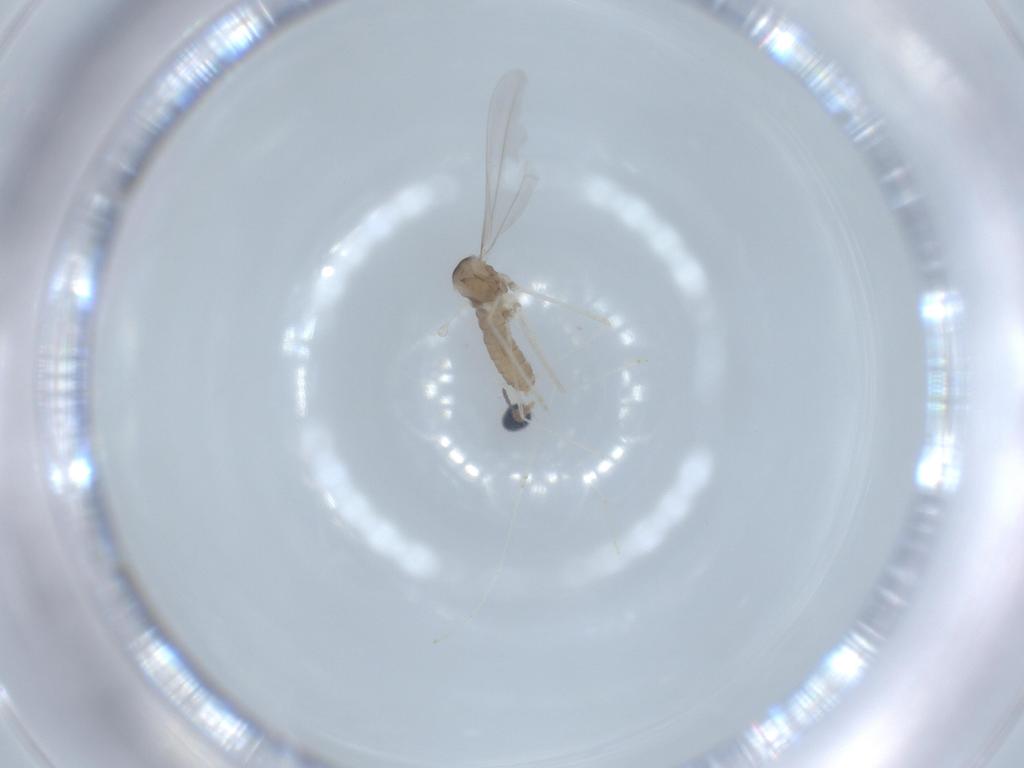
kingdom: Animalia
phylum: Arthropoda
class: Insecta
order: Diptera
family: Cecidomyiidae
